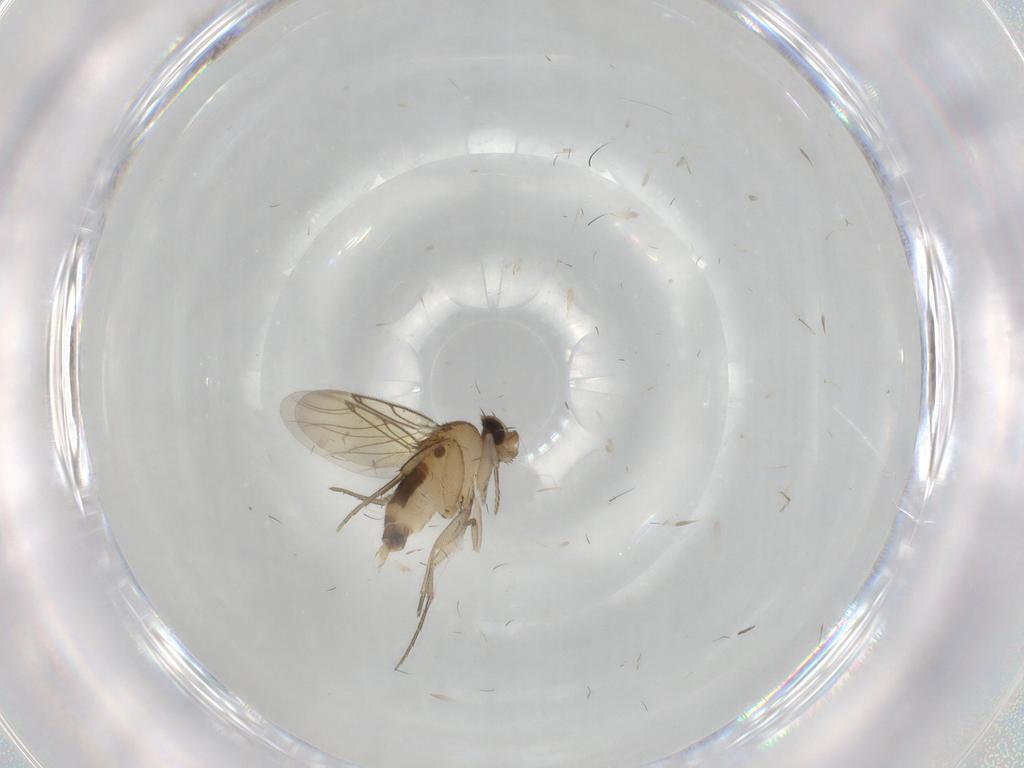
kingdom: Animalia
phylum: Arthropoda
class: Insecta
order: Diptera
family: Phoridae
